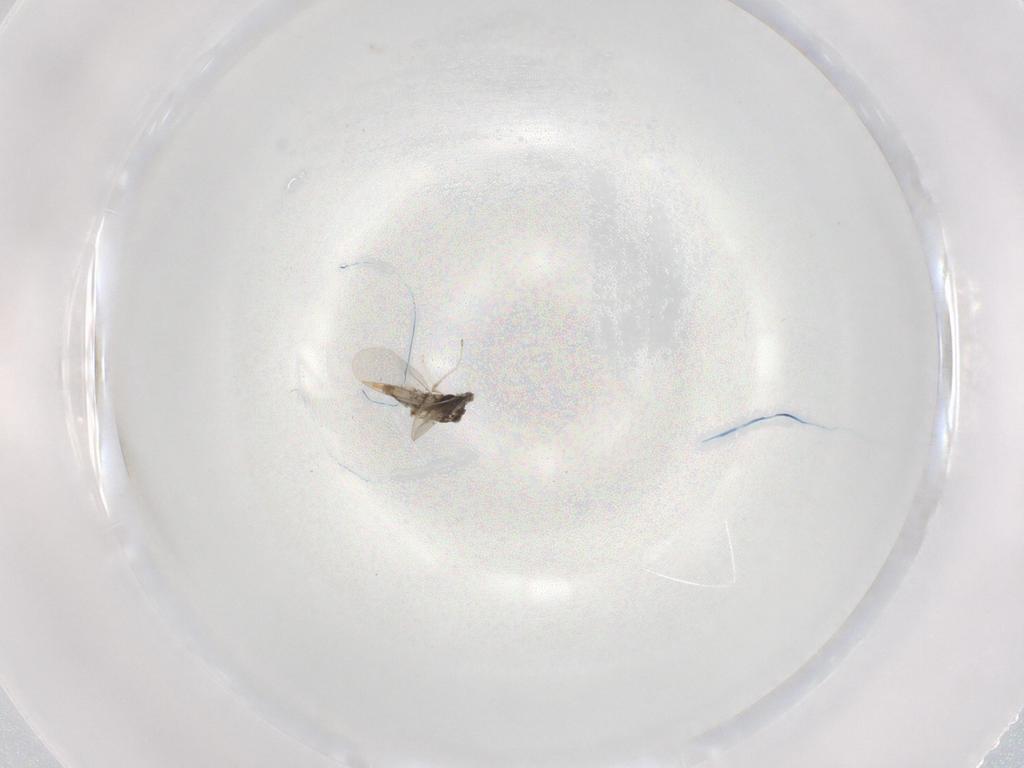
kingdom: Animalia
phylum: Arthropoda
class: Insecta
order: Diptera
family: Cecidomyiidae
